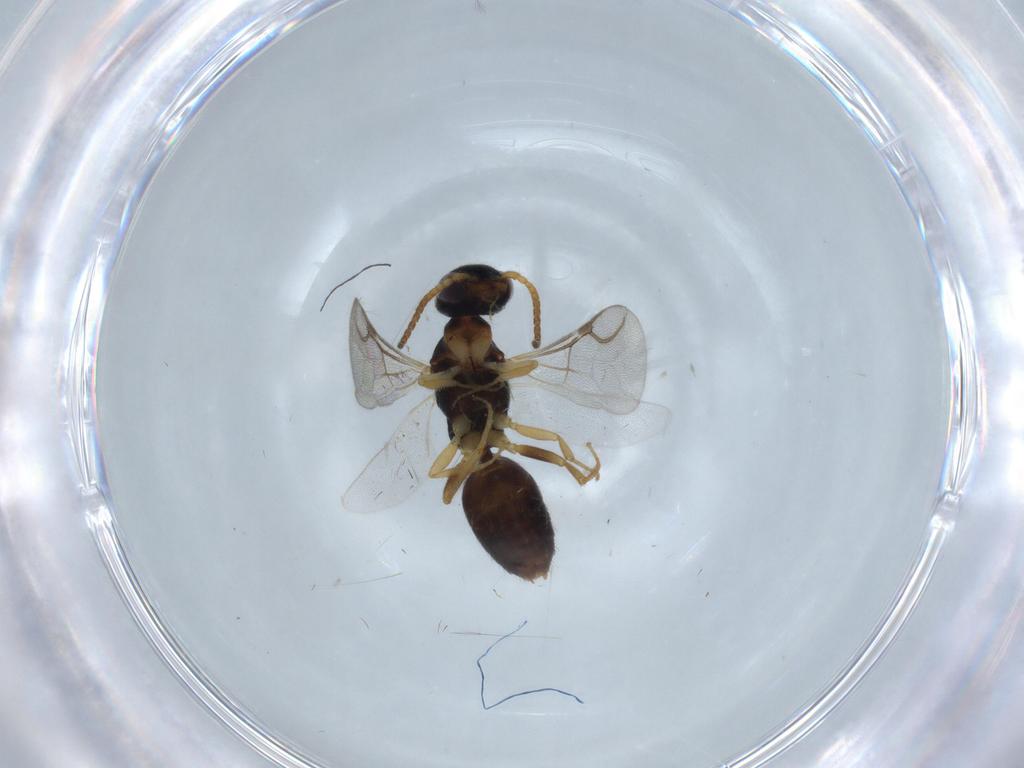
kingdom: Animalia
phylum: Arthropoda
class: Insecta
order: Hymenoptera
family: Bethylidae
